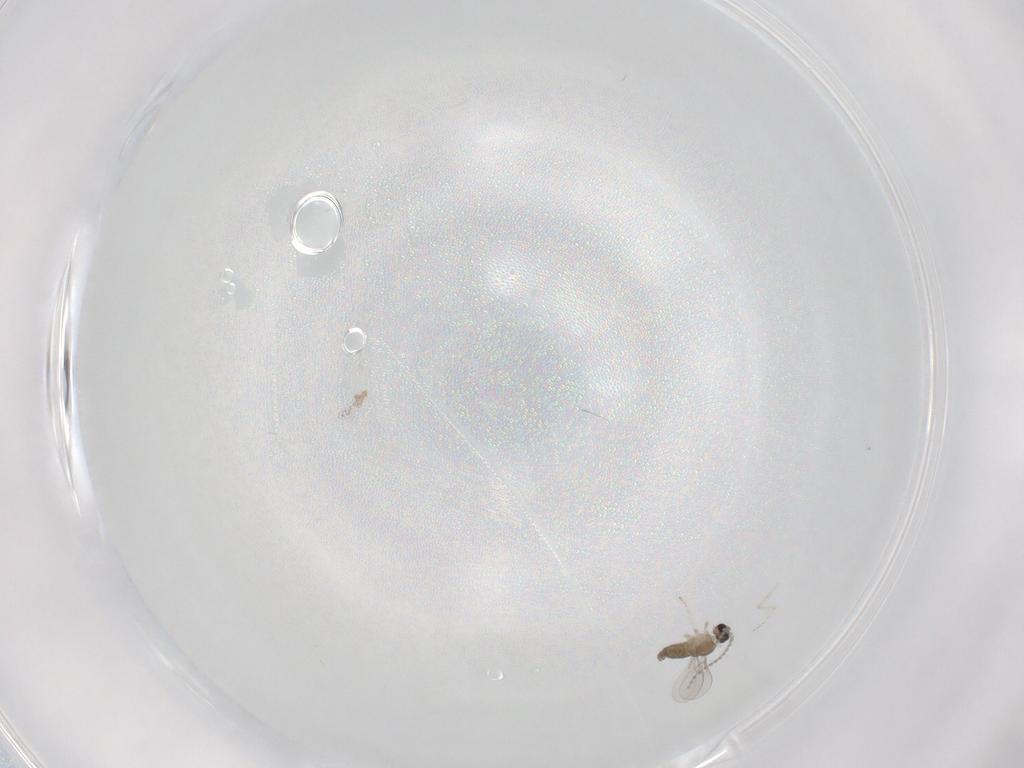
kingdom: Animalia
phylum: Arthropoda
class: Insecta
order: Diptera
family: Cecidomyiidae
